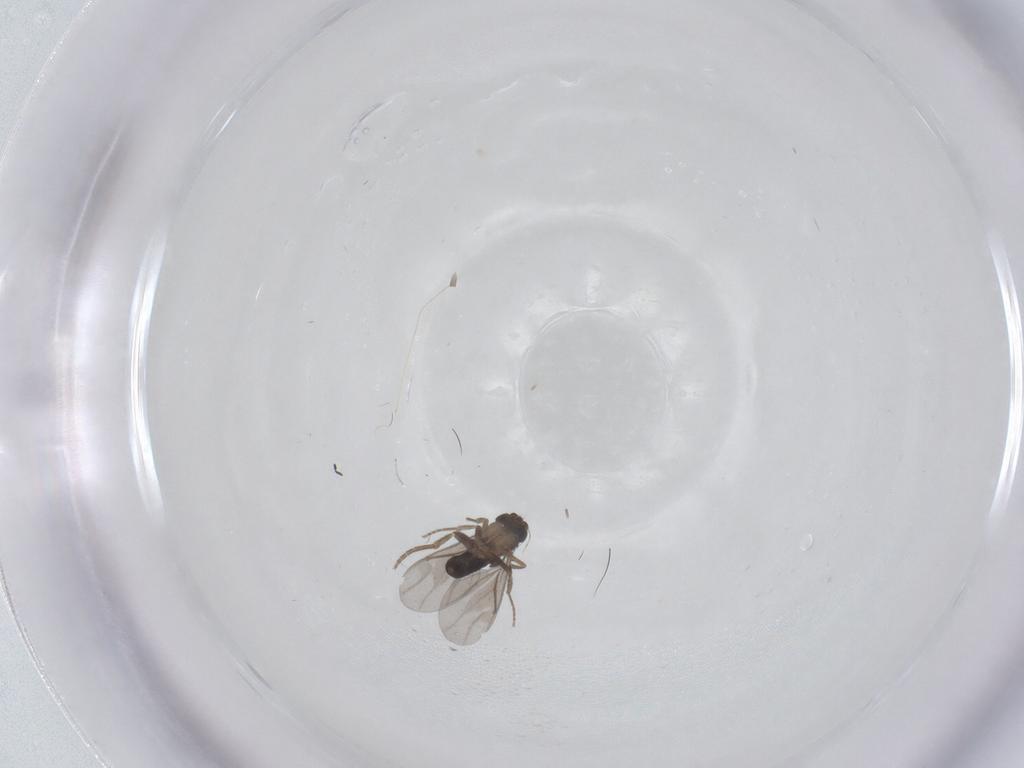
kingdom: Animalia
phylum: Arthropoda
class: Insecta
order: Diptera
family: Tabanidae
